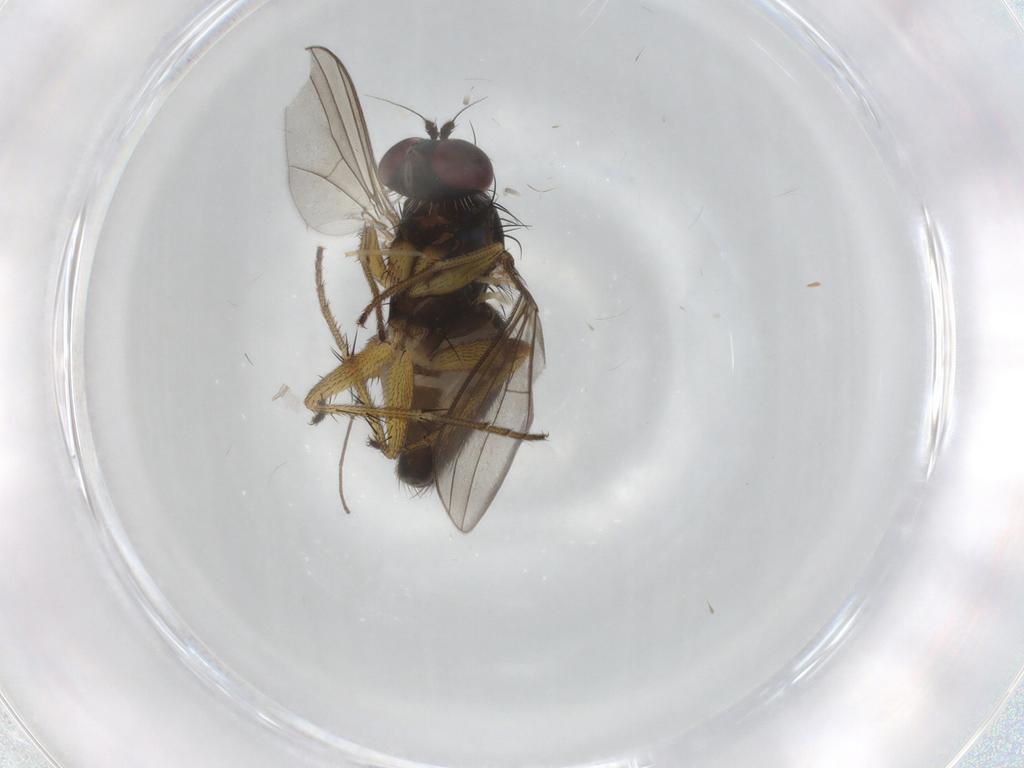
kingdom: Animalia
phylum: Arthropoda
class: Insecta
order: Diptera
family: Dolichopodidae
